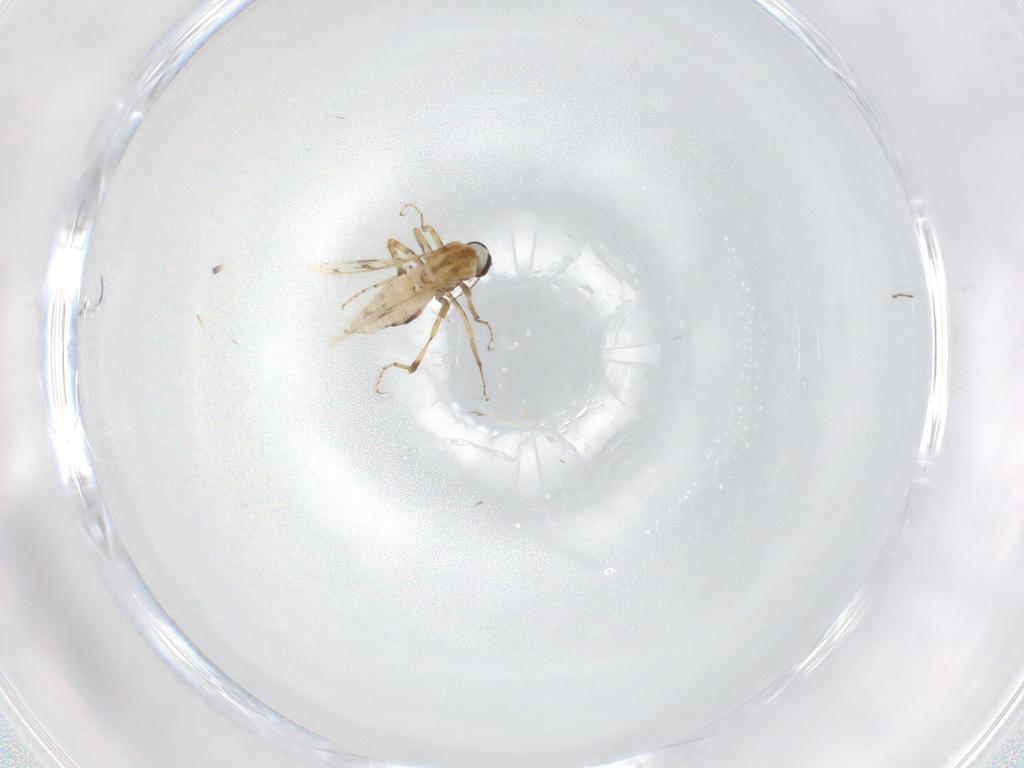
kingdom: Animalia
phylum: Arthropoda
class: Insecta
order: Diptera
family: Ceratopogonidae
